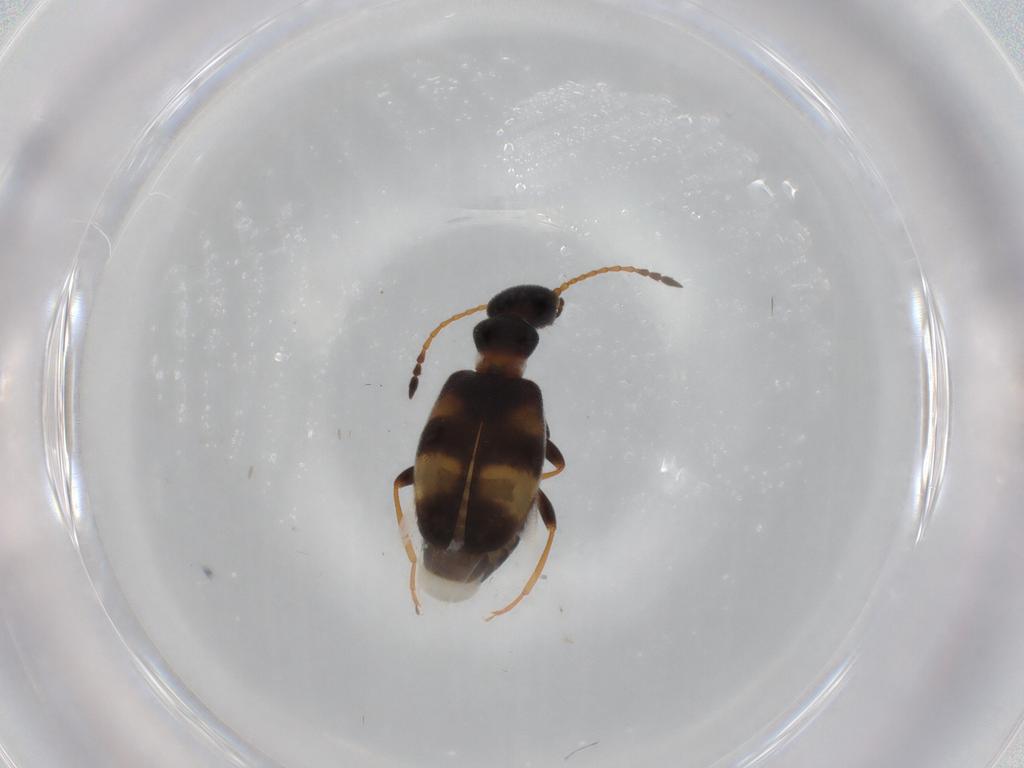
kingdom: Animalia
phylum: Arthropoda
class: Insecta
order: Coleoptera
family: Anthicidae
